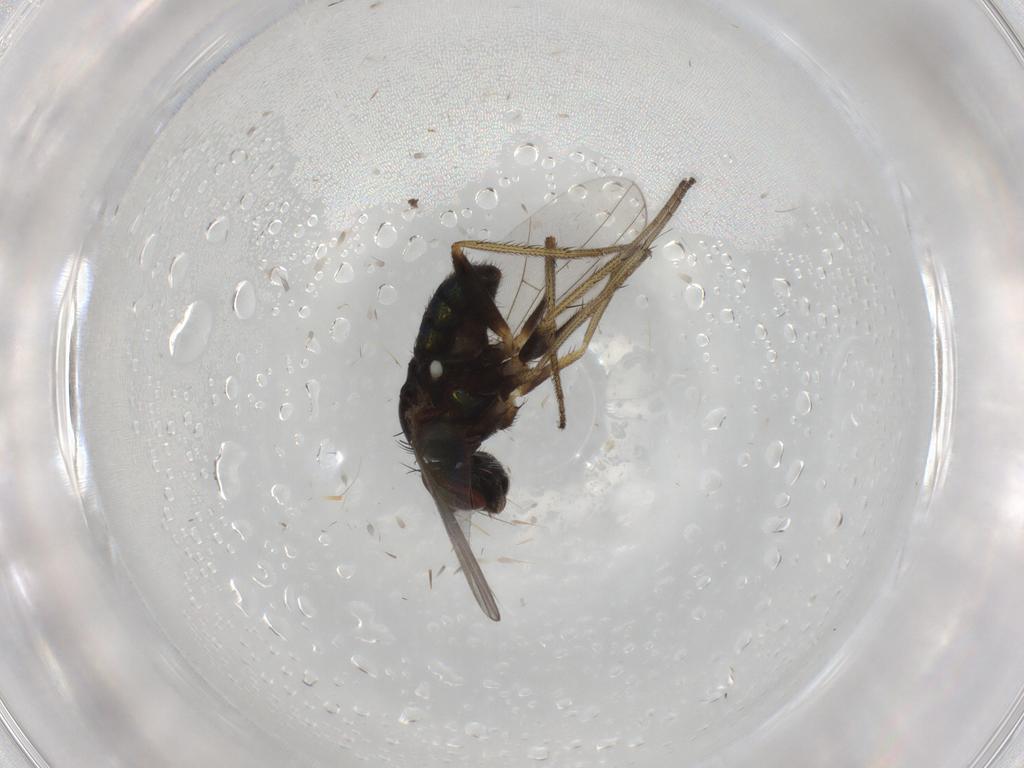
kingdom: Animalia
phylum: Arthropoda
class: Insecta
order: Diptera
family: Dolichopodidae
